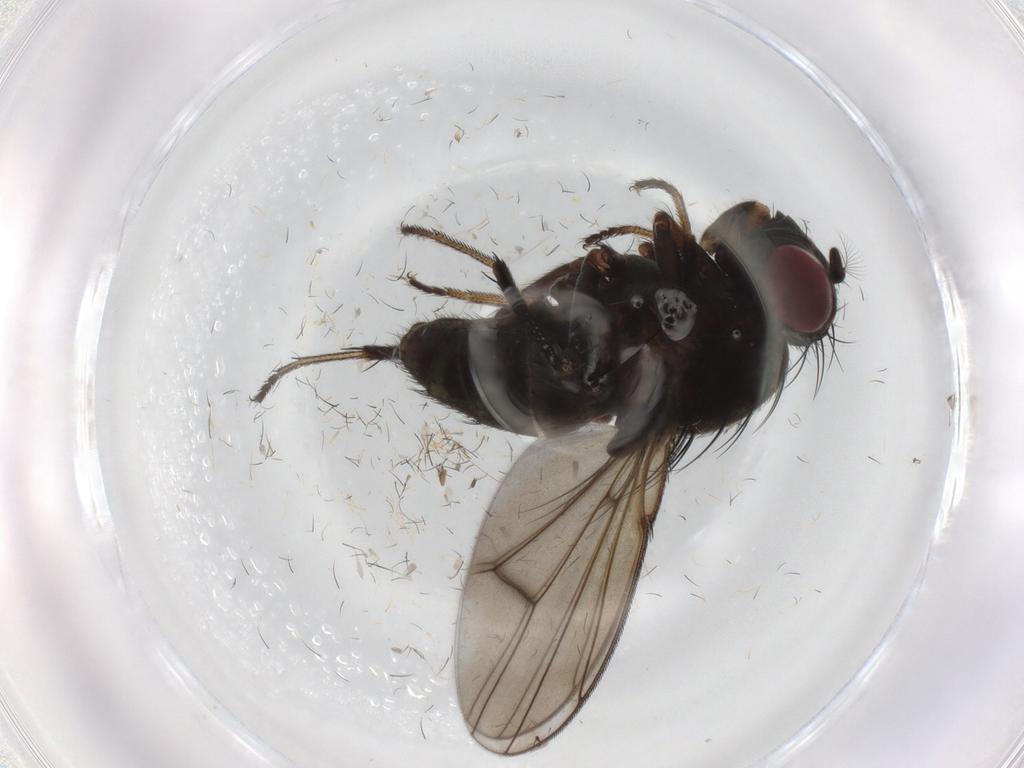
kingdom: Animalia
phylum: Arthropoda
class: Insecta
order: Diptera
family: Ephydridae
